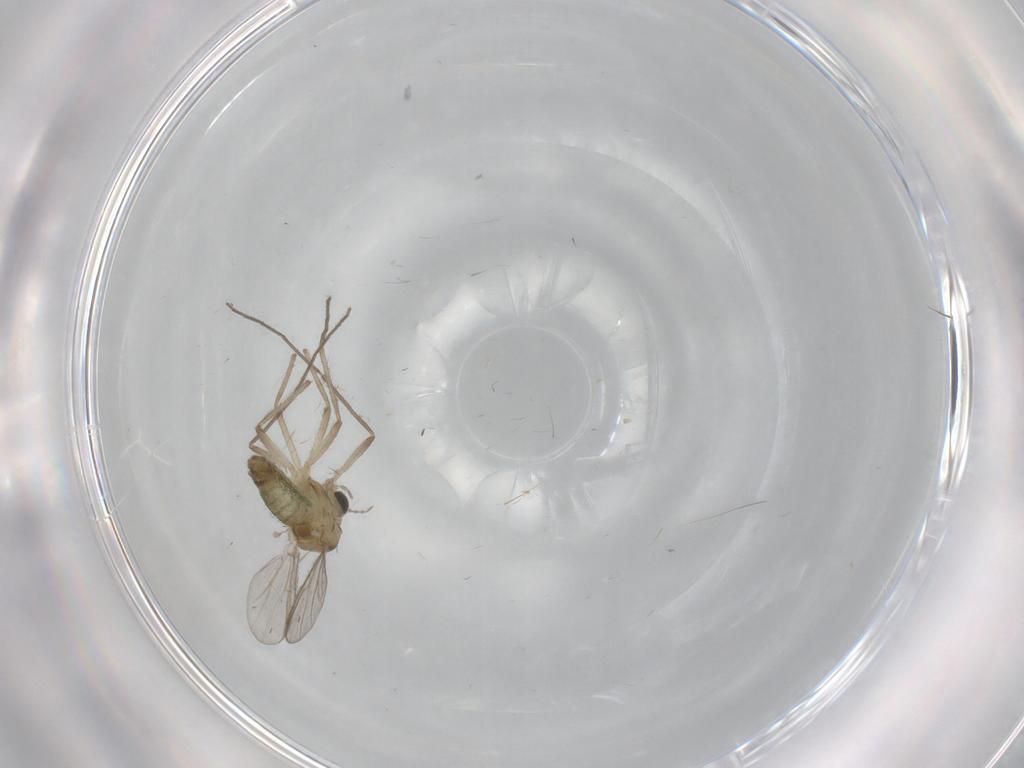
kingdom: Animalia
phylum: Arthropoda
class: Insecta
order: Diptera
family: Chironomidae
